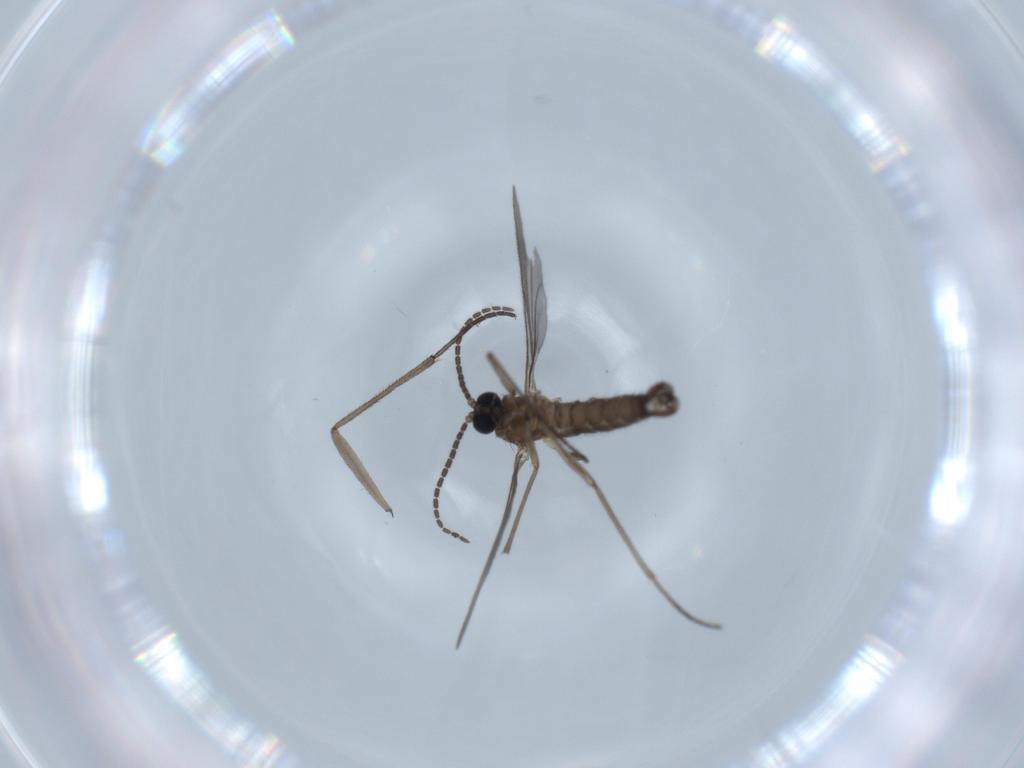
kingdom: Animalia
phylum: Arthropoda
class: Insecta
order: Diptera
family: Sciaridae
